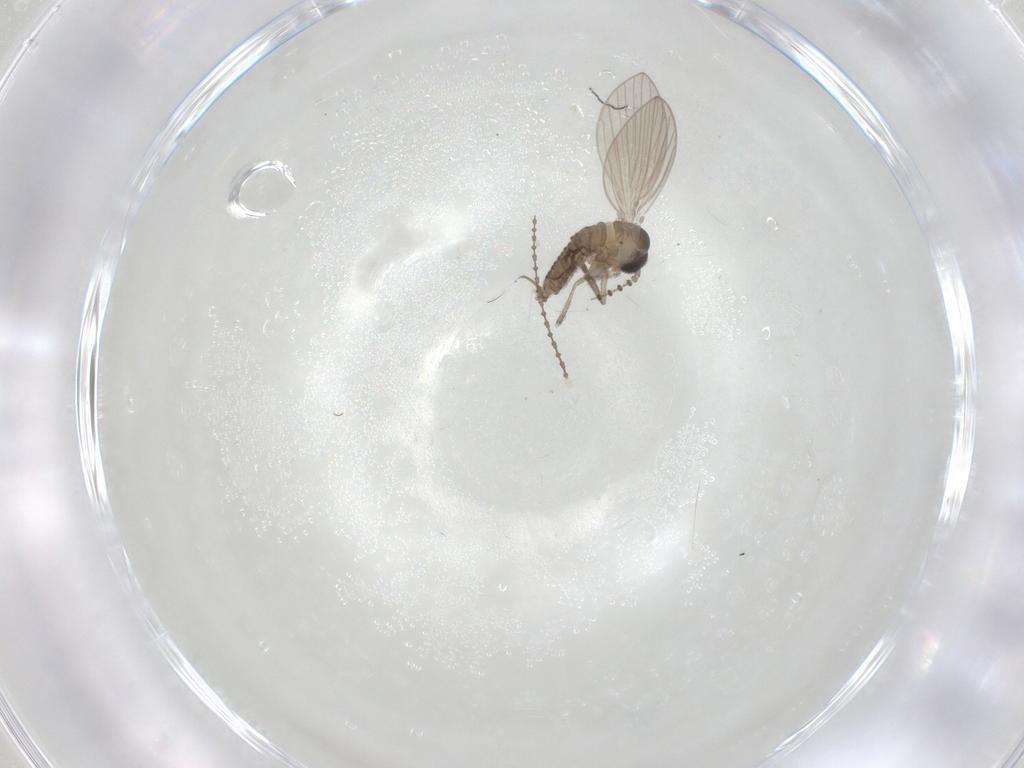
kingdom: Animalia
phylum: Arthropoda
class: Insecta
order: Diptera
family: Psychodidae
